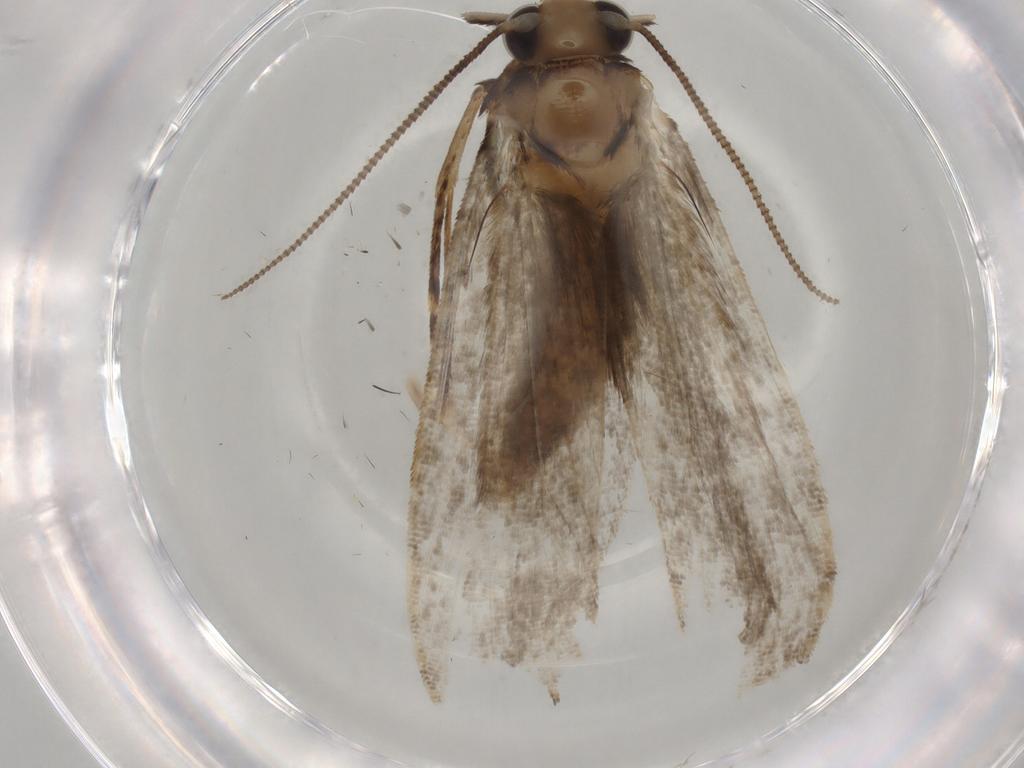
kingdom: Animalia
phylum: Arthropoda
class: Insecta
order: Lepidoptera
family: Tineidae
